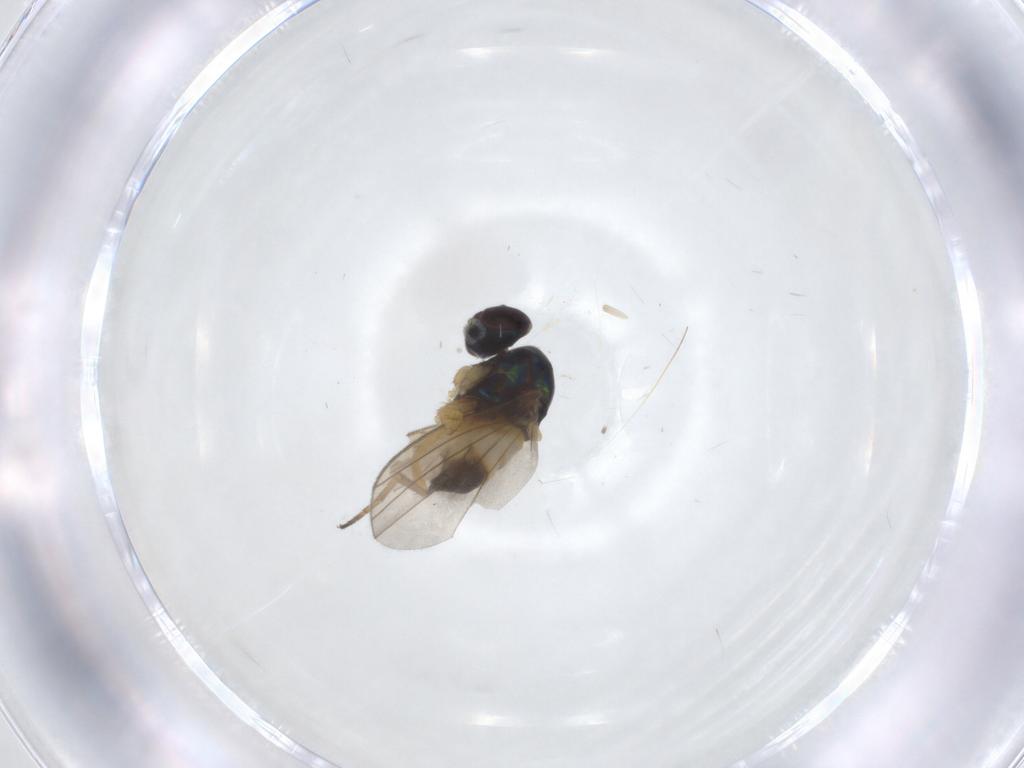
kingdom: Animalia
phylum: Arthropoda
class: Insecta
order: Diptera
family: Dolichopodidae
